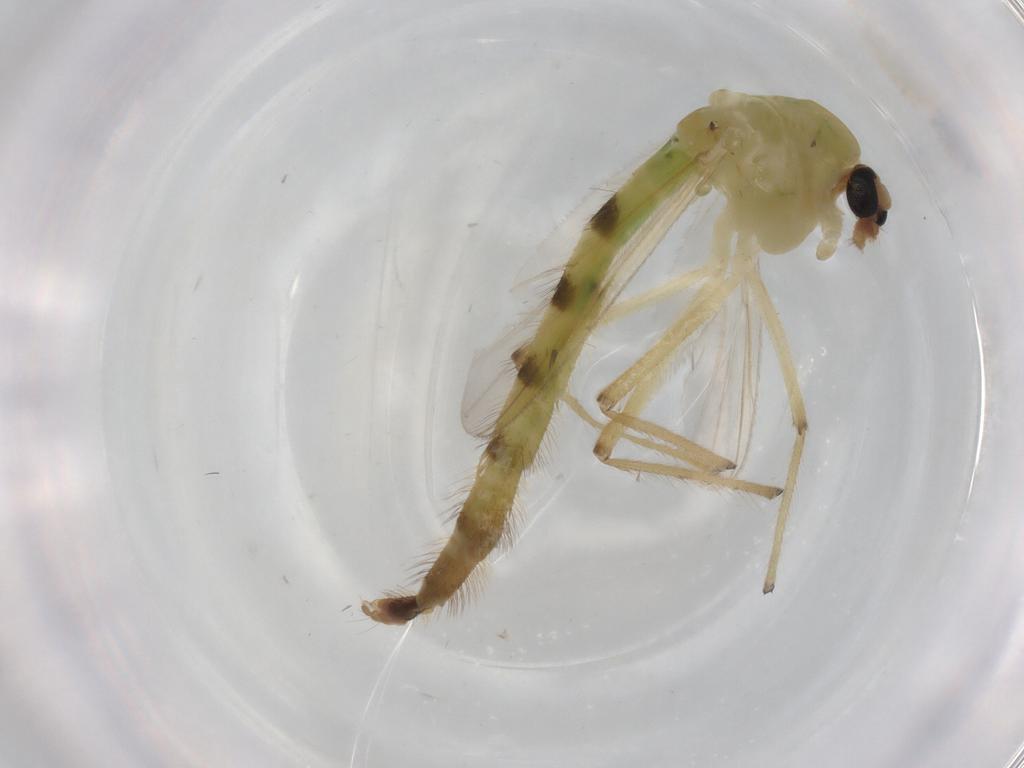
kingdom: Animalia
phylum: Arthropoda
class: Insecta
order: Diptera
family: Chironomidae
